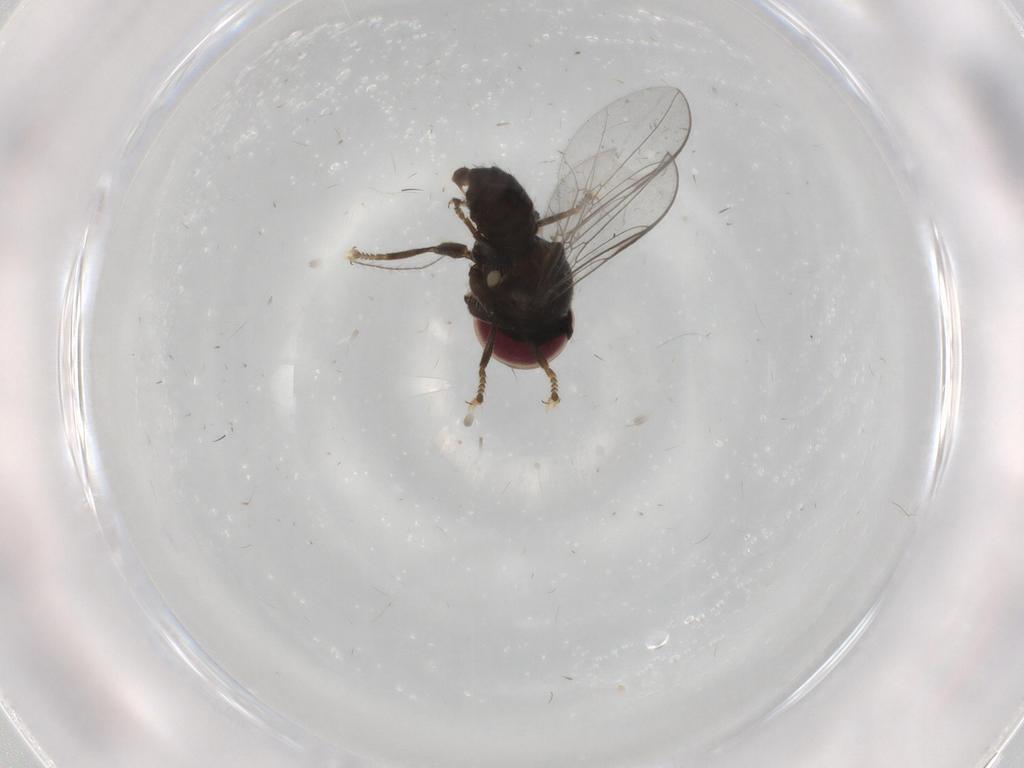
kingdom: Animalia
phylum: Arthropoda
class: Insecta
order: Diptera
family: Pipunculidae
